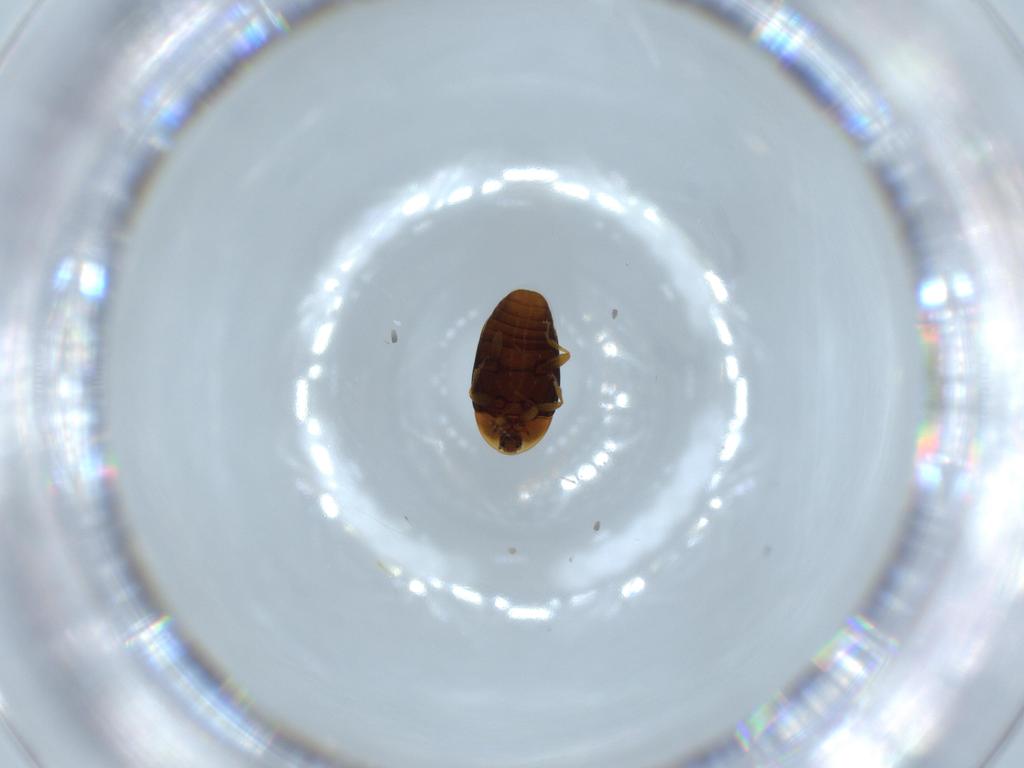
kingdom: Animalia
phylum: Arthropoda
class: Insecta
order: Coleoptera
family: Corylophidae
